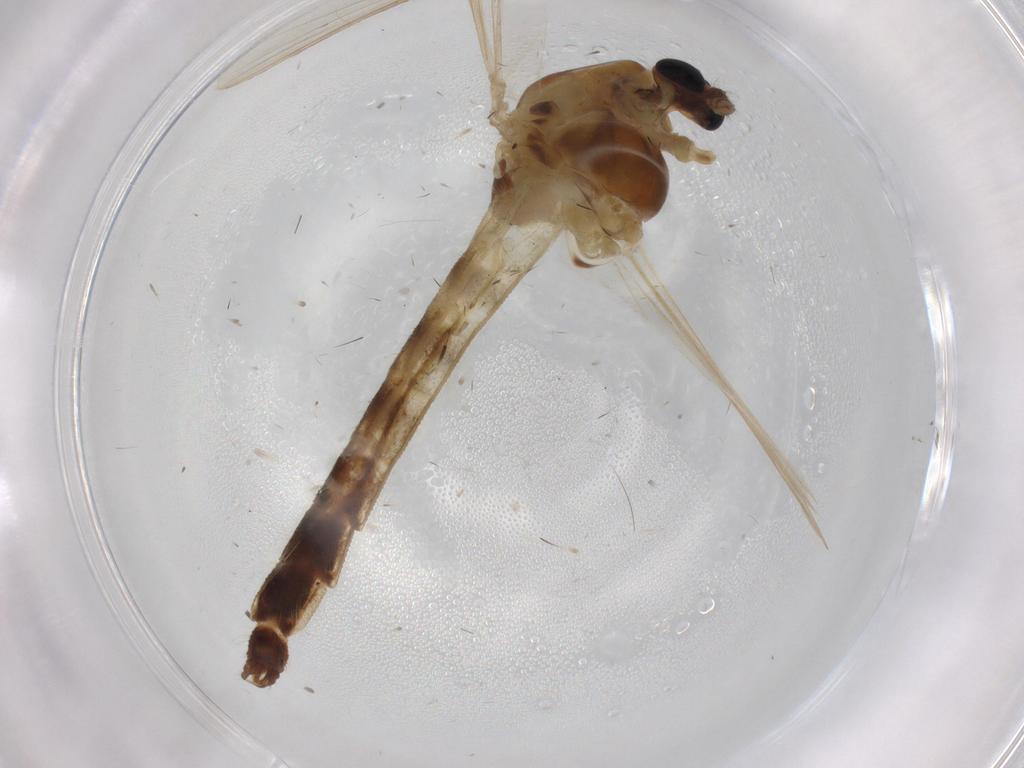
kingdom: Animalia
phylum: Arthropoda
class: Insecta
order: Diptera
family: Chironomidae
